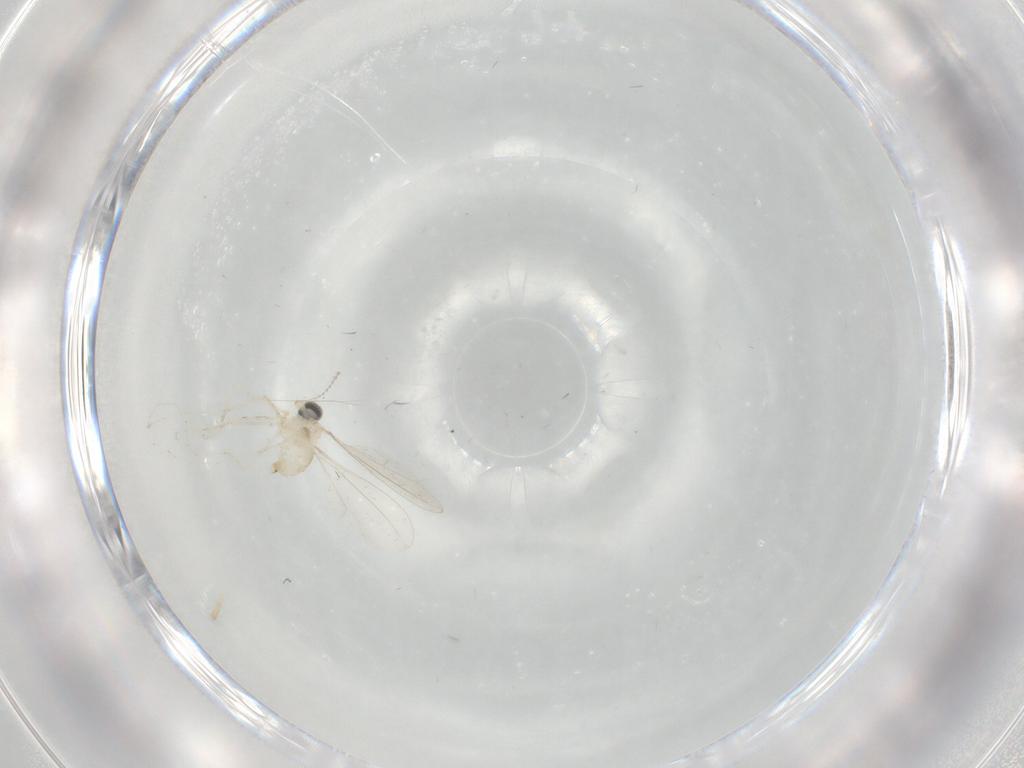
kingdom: Animalia
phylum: Arthropoda
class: Insecta
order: Diptera
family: Cecidomyiidae
